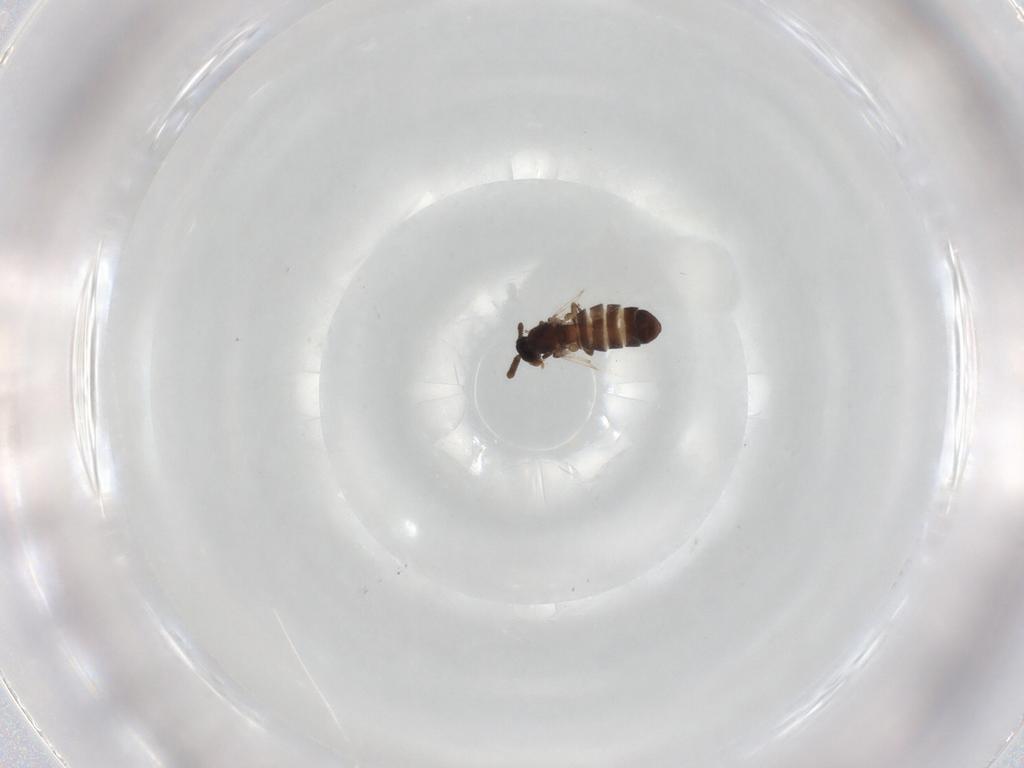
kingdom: Animalia
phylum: Arthropoda
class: Insecta
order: Diptera
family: Phoridae
